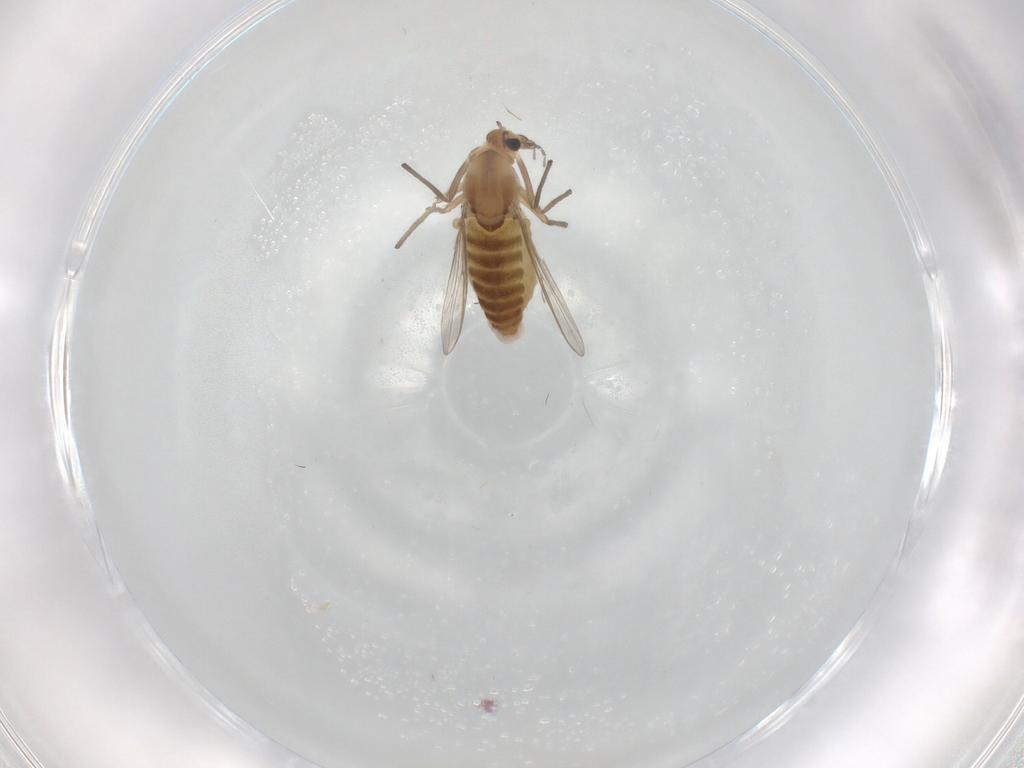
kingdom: Animalia
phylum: Arthropoda
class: Insecta
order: Diptera
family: Chironomidae
